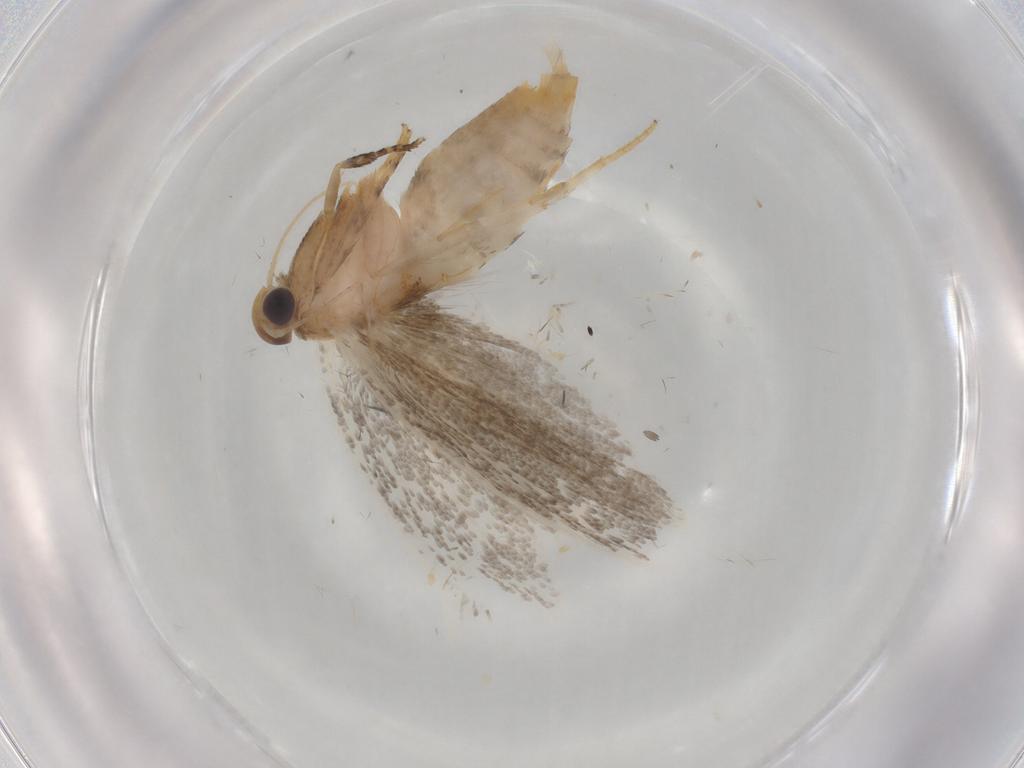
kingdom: Animalia
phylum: Arthropoda
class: Insecta
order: Lepidoptera
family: Oecophoridae
